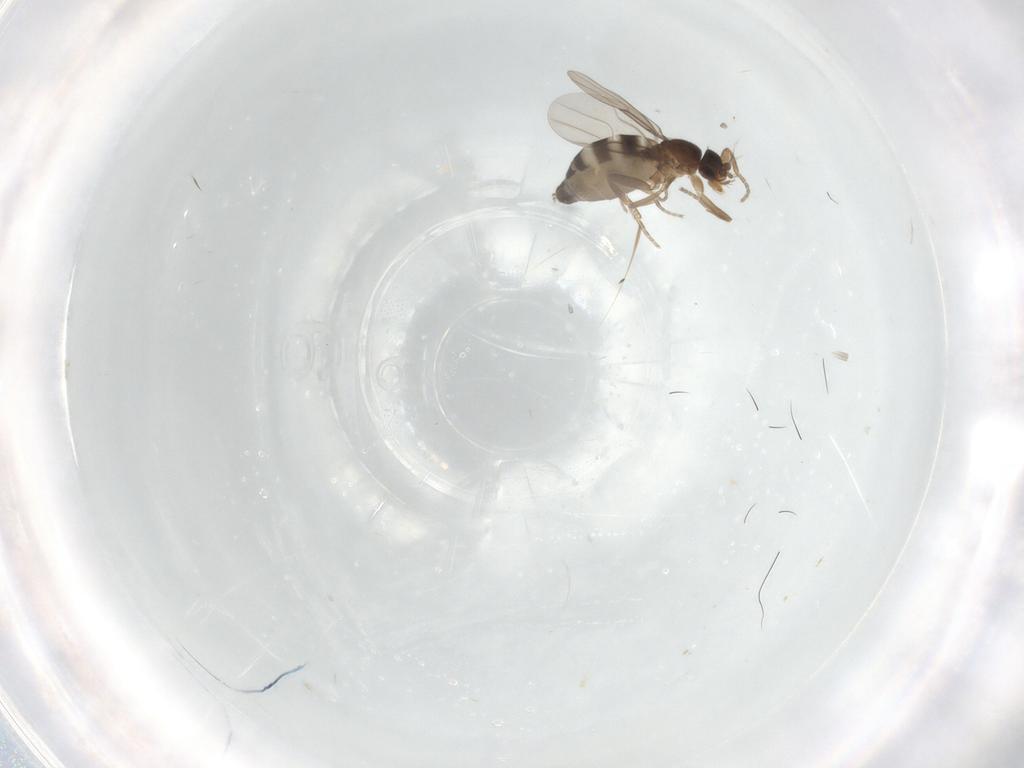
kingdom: Animalia
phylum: Arthropoda
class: Insecta
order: Diptera
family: Phoridae
